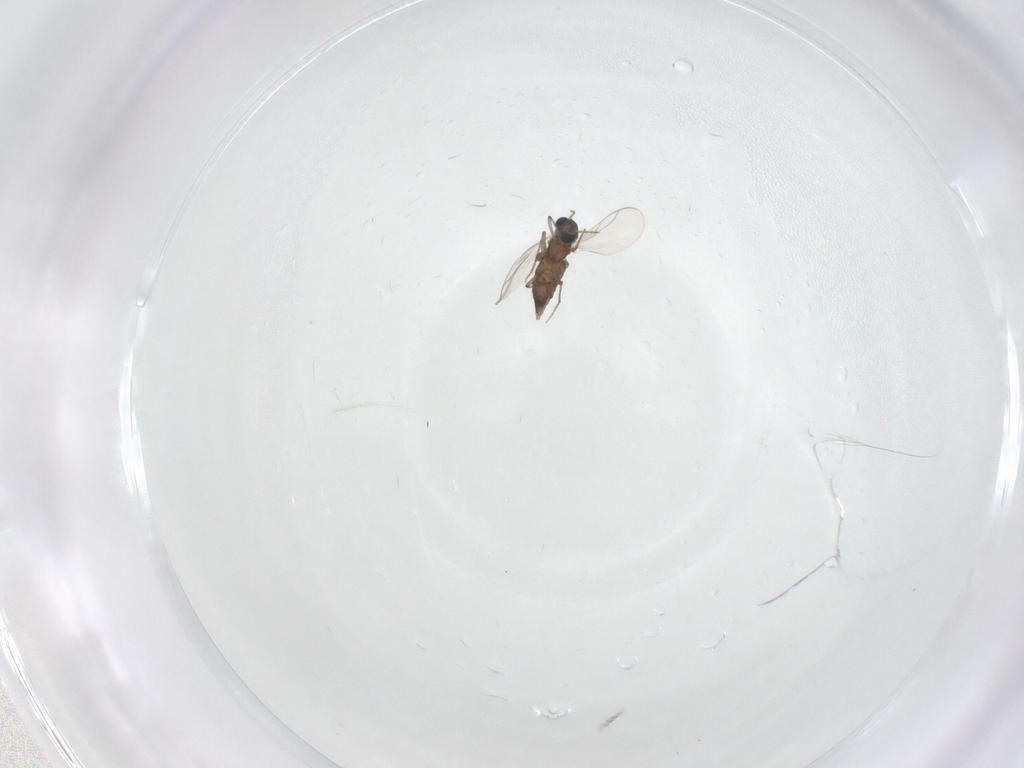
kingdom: Animalia
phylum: Arthropoda
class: Insecta
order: Diptera
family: Chironomidae
